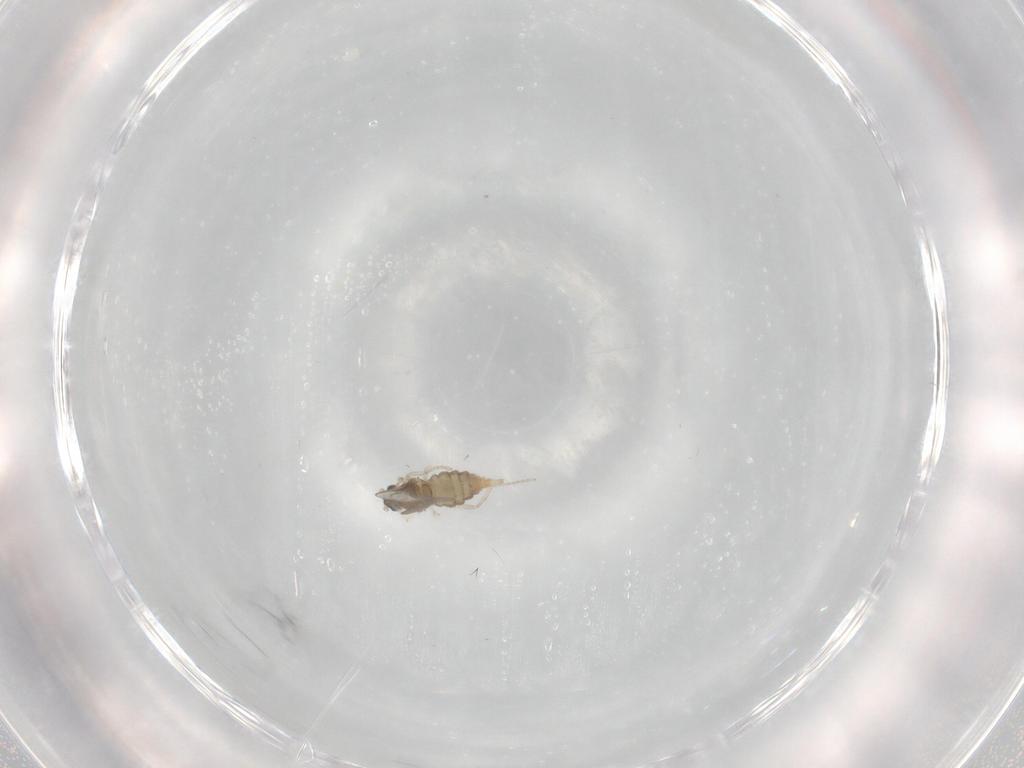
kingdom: Animalia
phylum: Arthropoda
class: Insecta
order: Diptera
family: Cecidomyiidae
